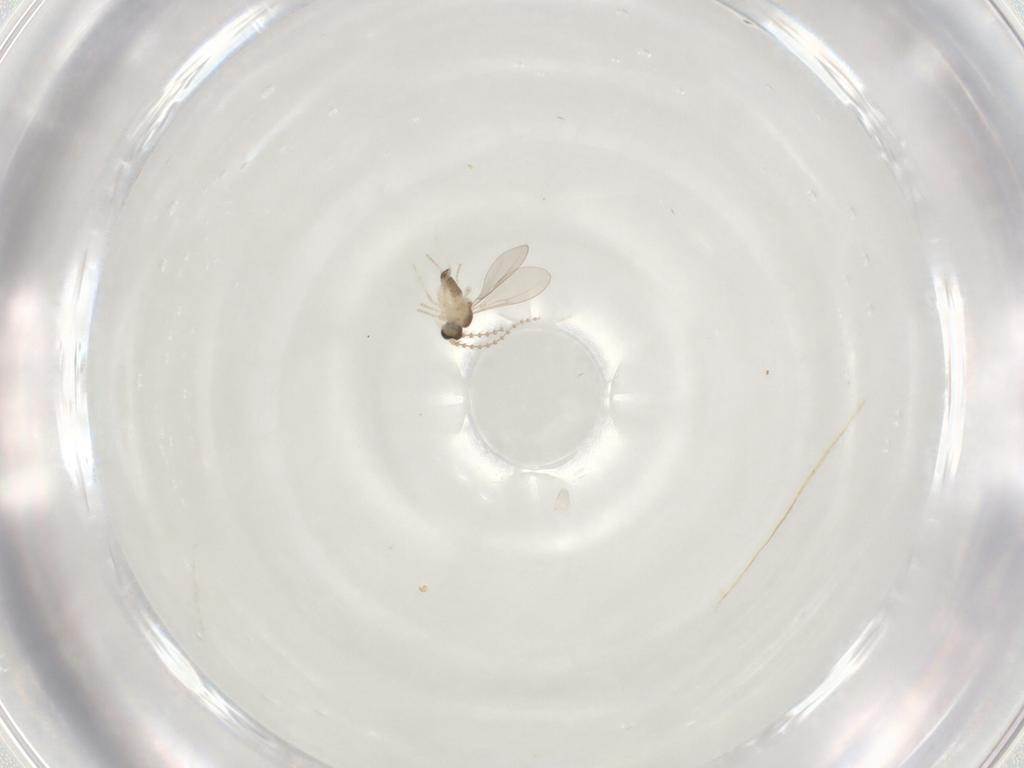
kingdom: Animalia
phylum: Arthropoda
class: Insecta
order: Diptera
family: Cecidomyiidae
